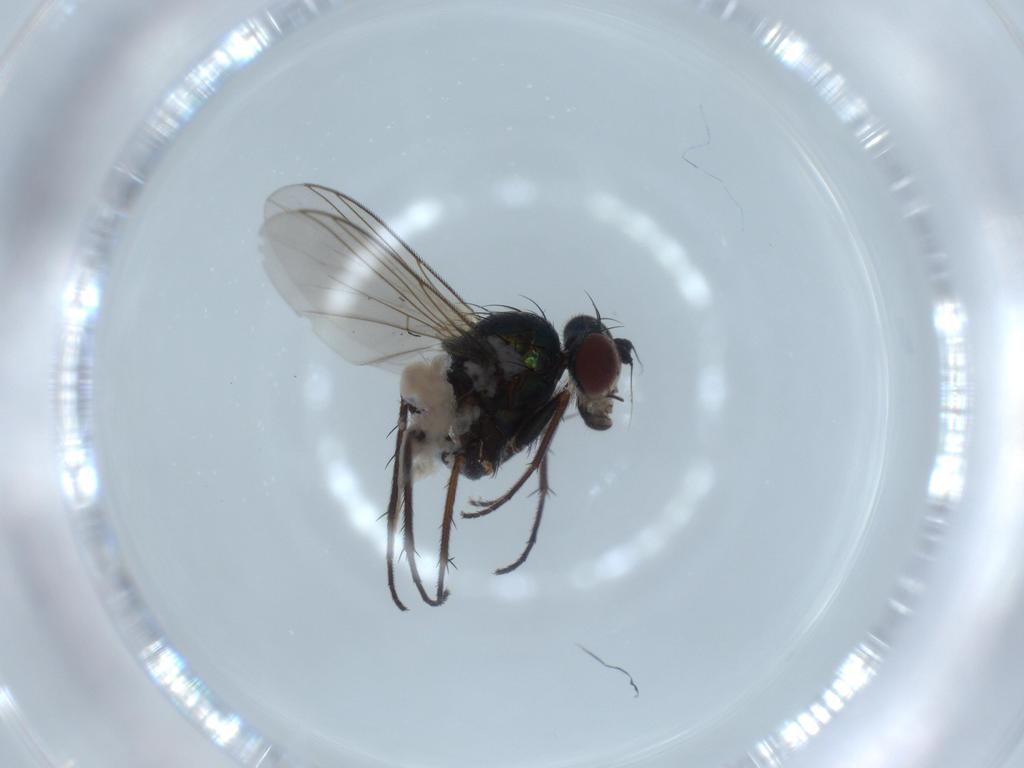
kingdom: Animalia
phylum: Arthropoda
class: Insecta
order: Diptera
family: Dolichopodidae
